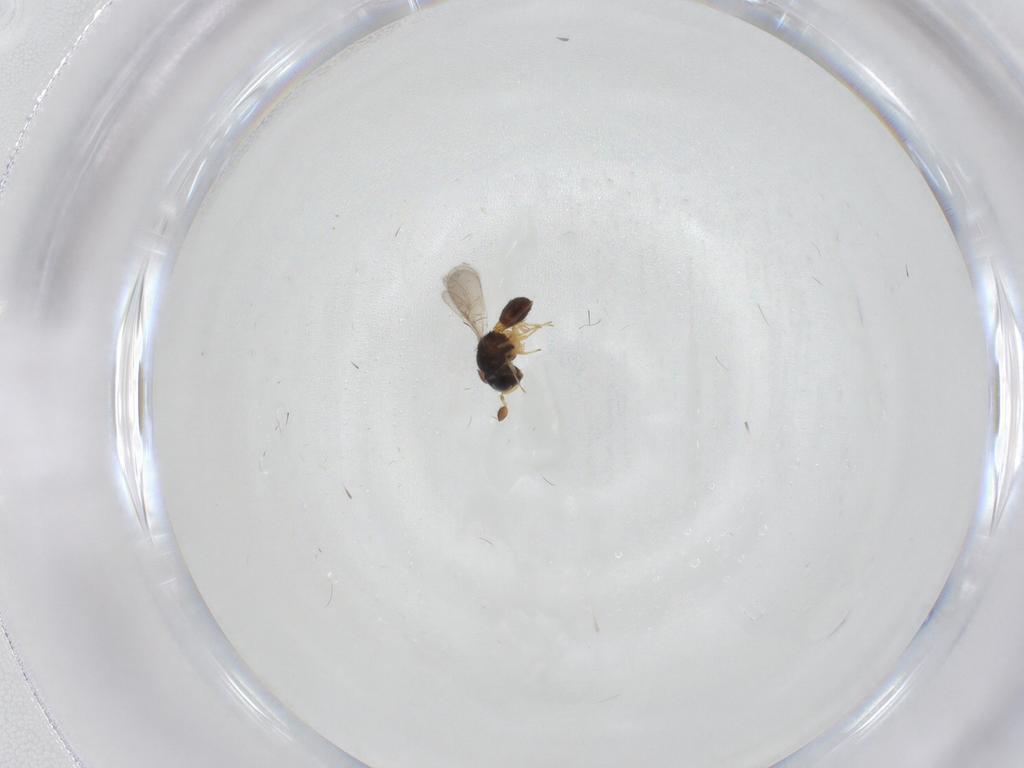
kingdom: Animalia
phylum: Arthropoda
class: Insecta
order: Hymenoptera
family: Scelionidae
